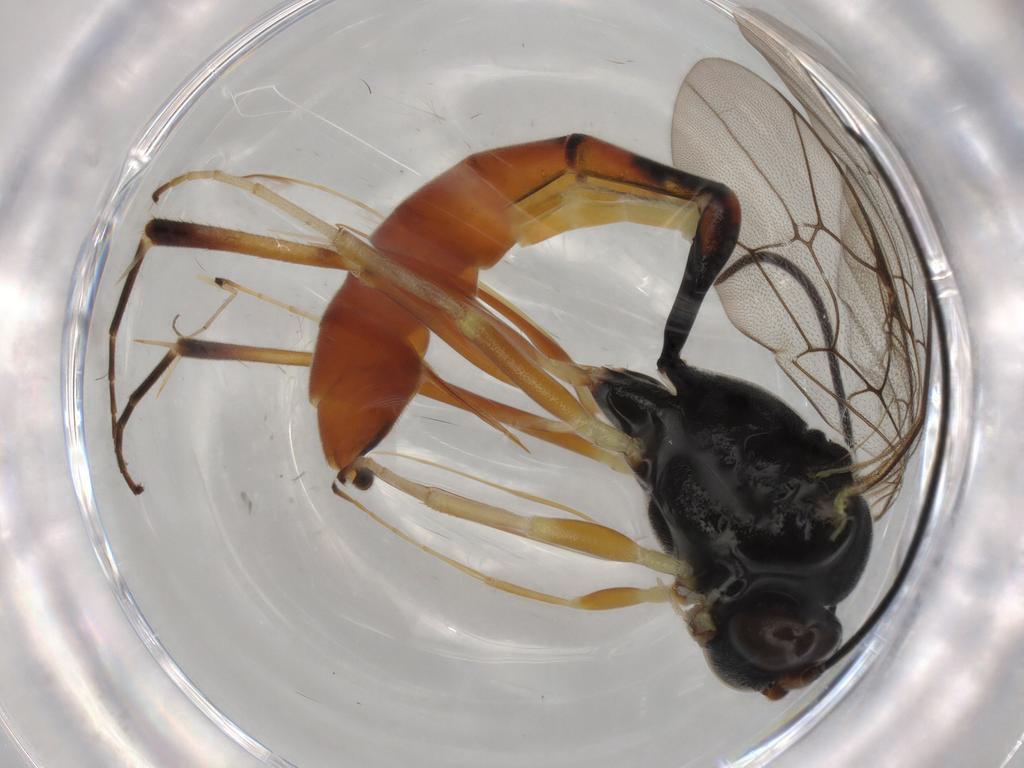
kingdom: Animalia
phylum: Arthropoda
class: Insecta
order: Hymenoptera
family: Ichneumonidae
